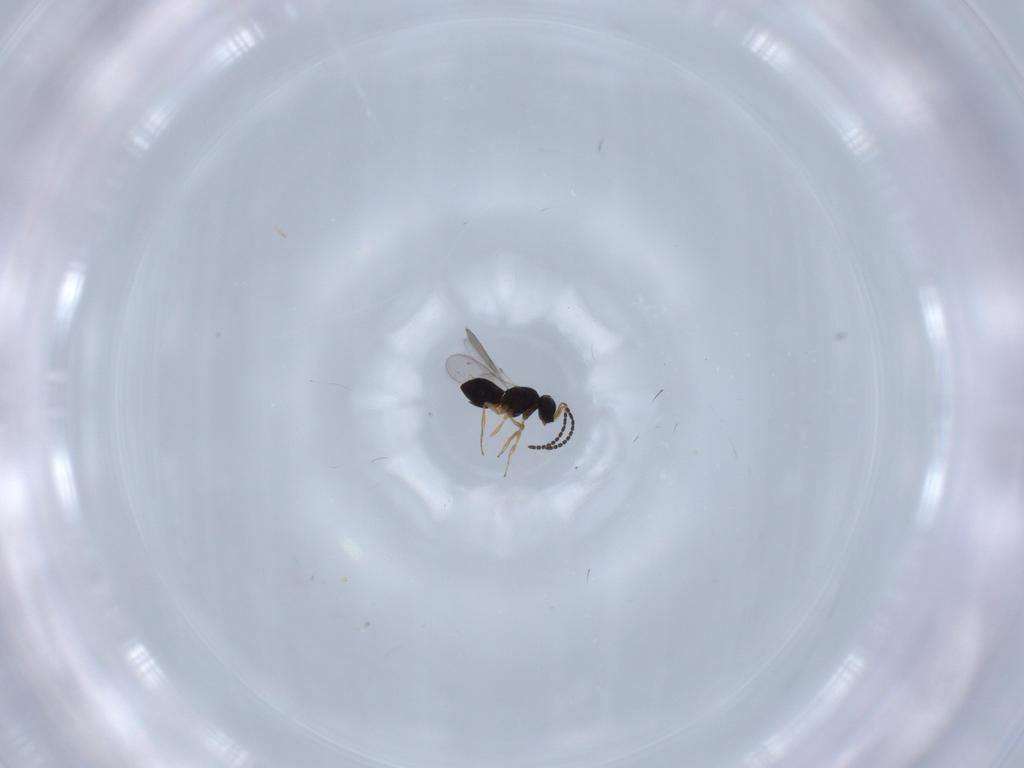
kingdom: Animalia
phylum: Arthropoda
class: Insecta
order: Hymenoptera
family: Scelionidae
